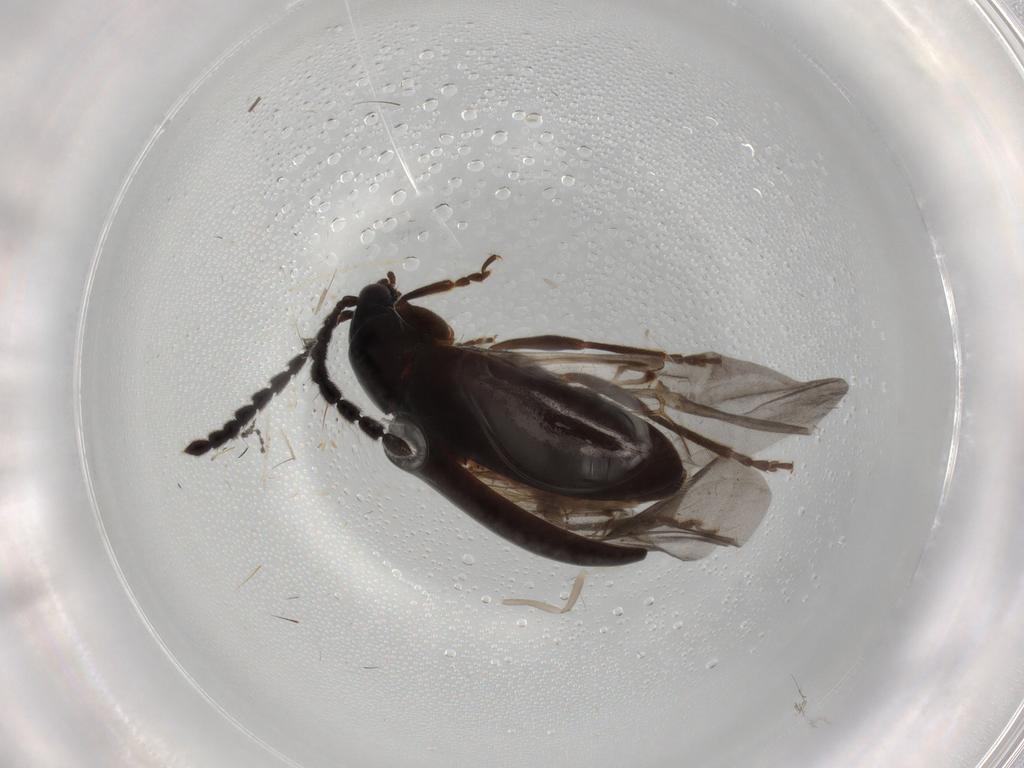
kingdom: Animalia
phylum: Arthropoda
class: Insecta
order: Coleoptera
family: Chrysomelidae
